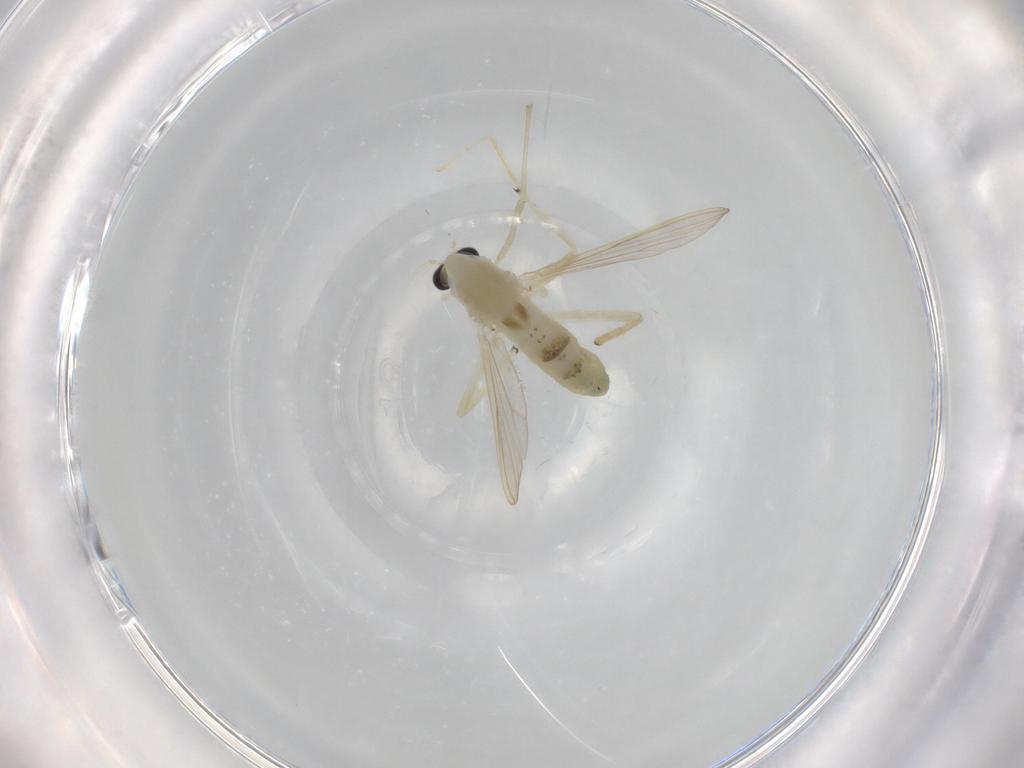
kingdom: Animalia
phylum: Arthropoda
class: Insecta
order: Diptera
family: Chironomidae
